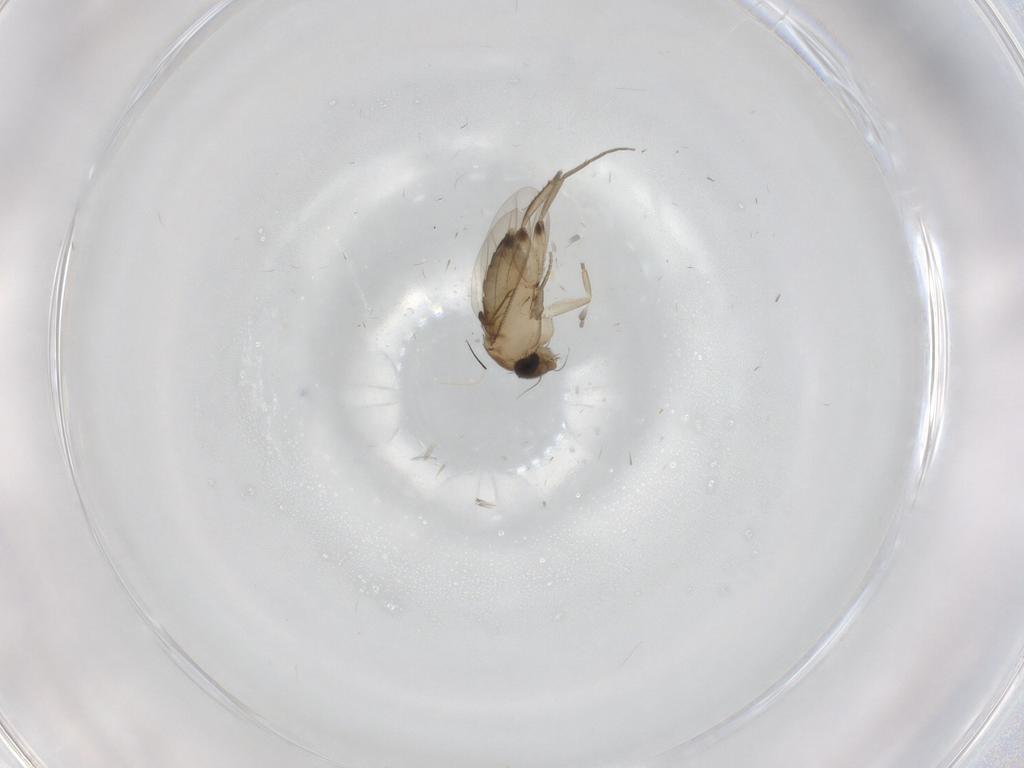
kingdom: Animalia
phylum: Arthropoda
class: Insecta
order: Diptera
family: Phoridae
